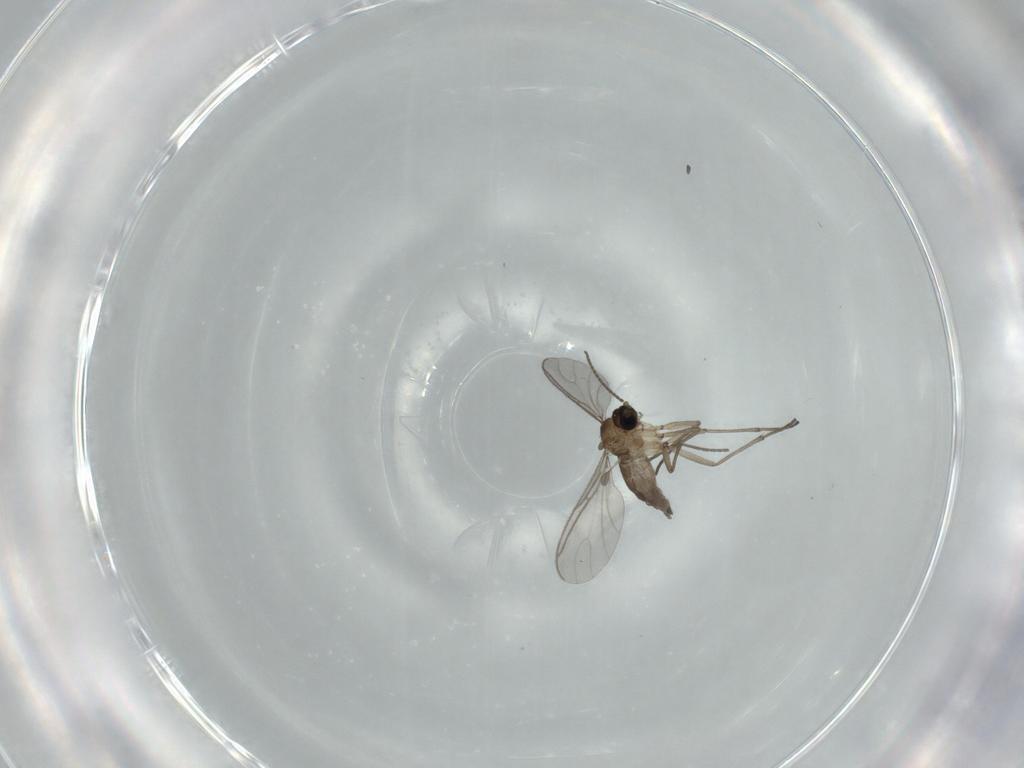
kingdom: Animalia
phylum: Arthropoda
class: Insecta
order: Diptera
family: Sciaridae
